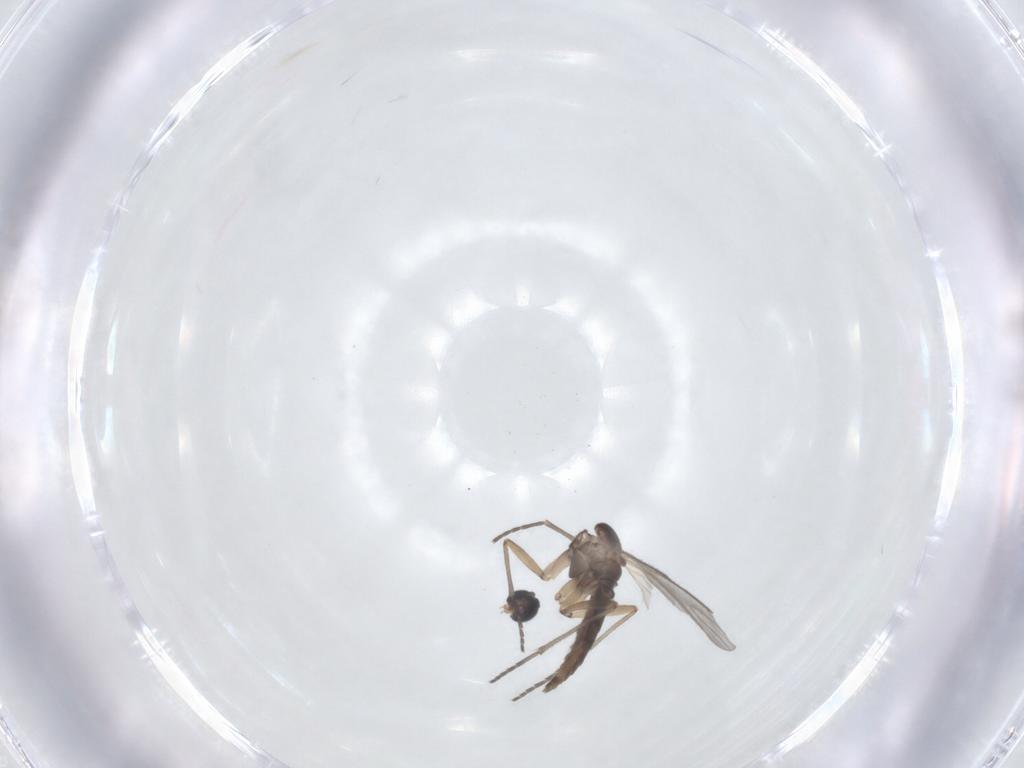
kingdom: Animalia
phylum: Arthropoda
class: Insecta
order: Diptera
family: Sciaridae
